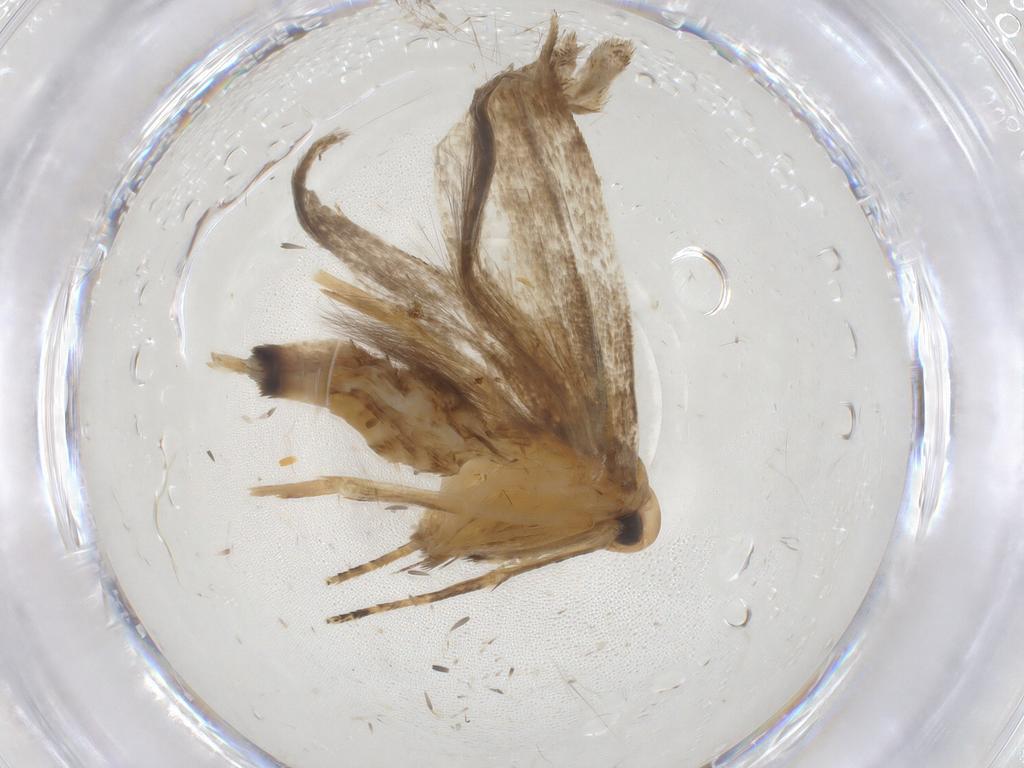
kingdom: Animalia
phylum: Arthropoda
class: Insecta
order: Lepidoptera
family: Gelechiidae
